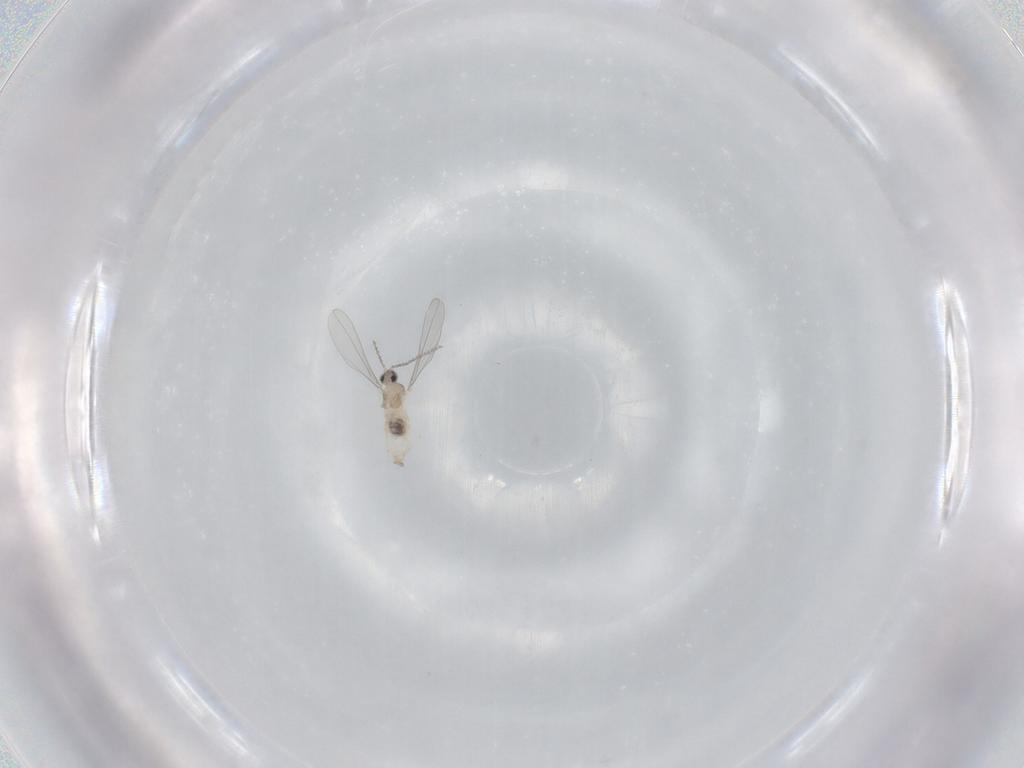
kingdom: Animalia
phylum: Arthropoda
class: Insecta
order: Diptera
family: Cecidomyiidae
